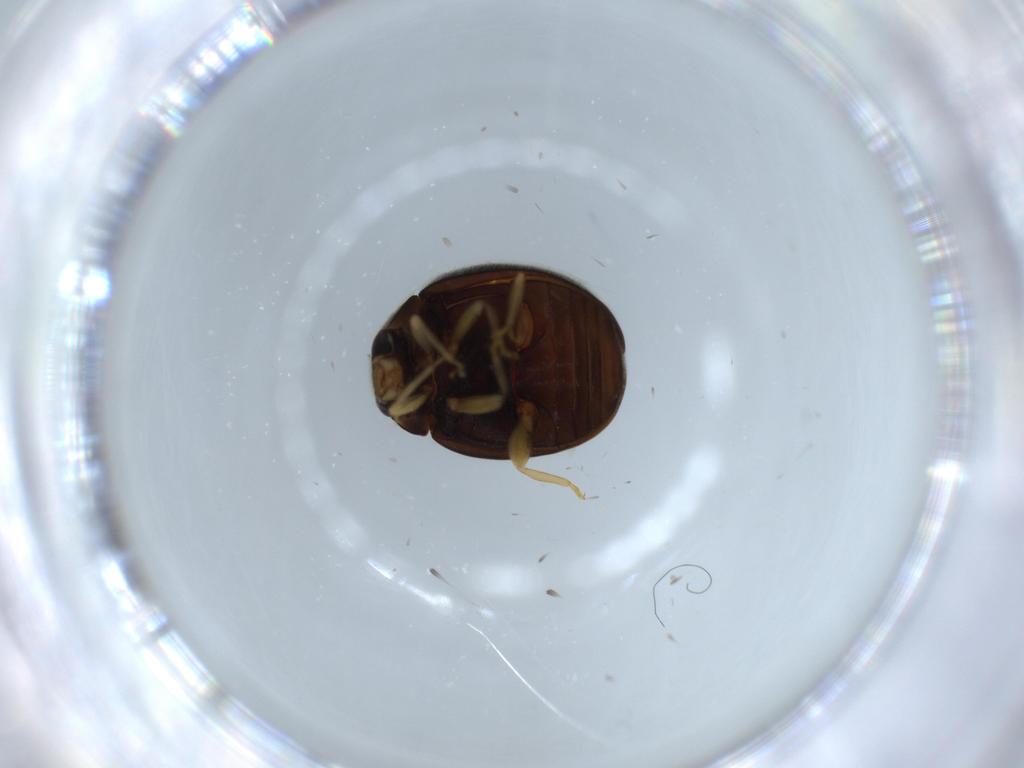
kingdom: Animalia
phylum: Arthropoda
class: Insecta
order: Coleoptera
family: Coccinellidae
